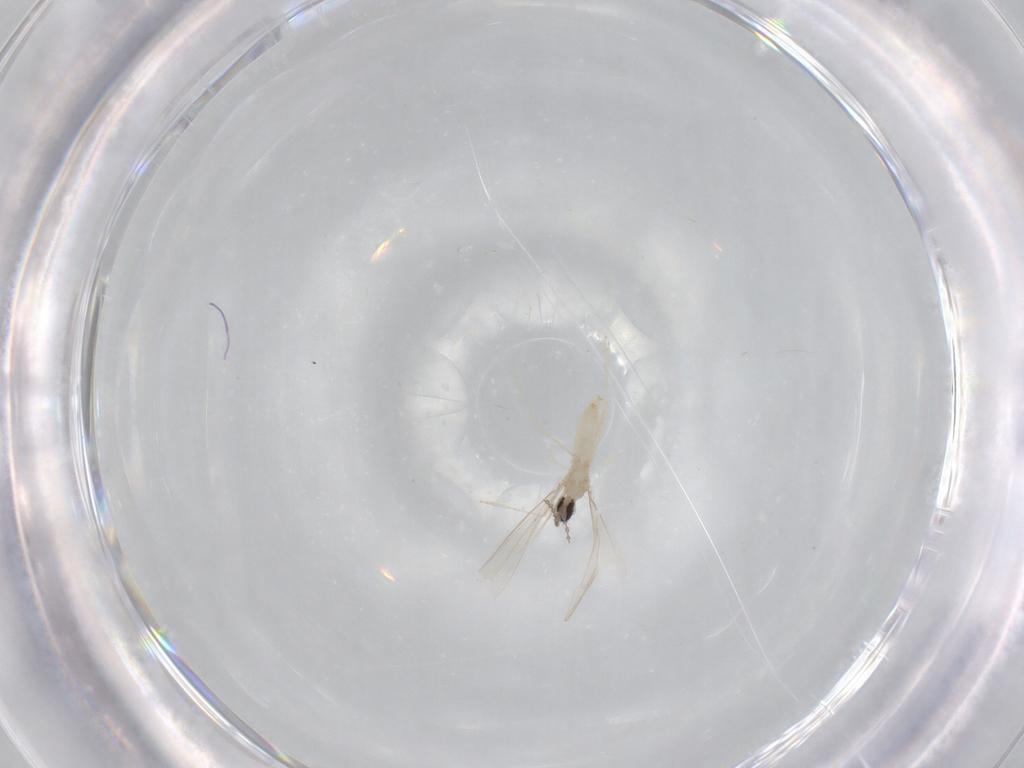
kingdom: Animalia
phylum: Arthropoda
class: Insecta
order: Diptera
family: Cecidomyiidae
